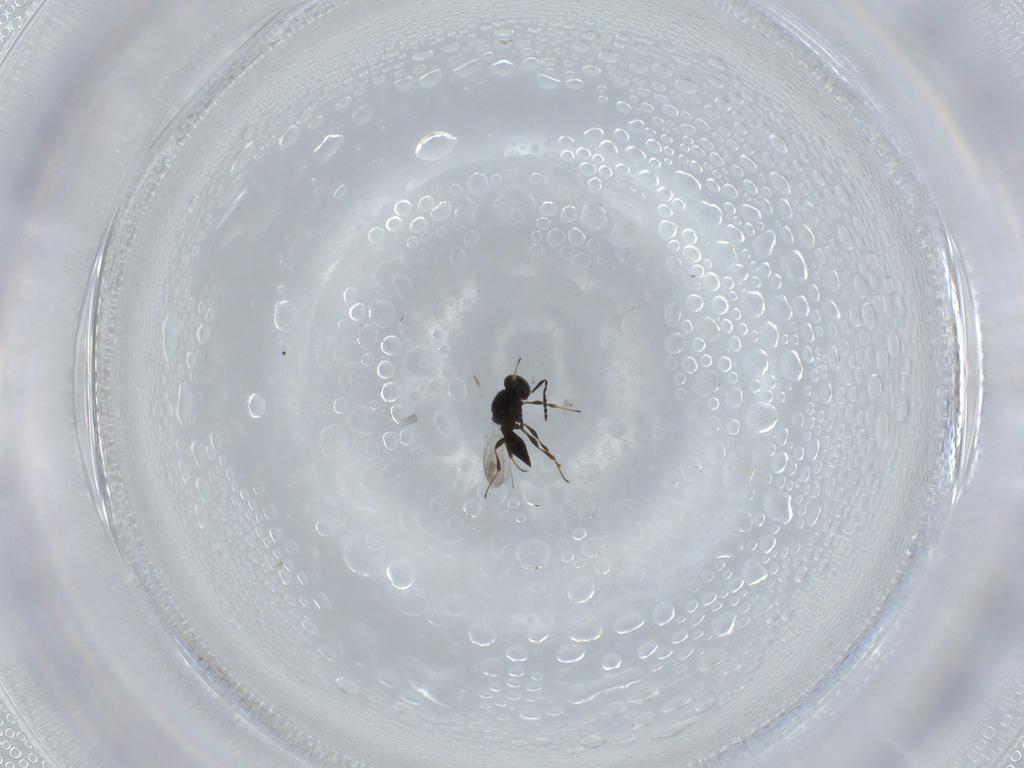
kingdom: Animalia
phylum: Arthropoda
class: Insecta
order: Diptera
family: Mythicomyiidae
